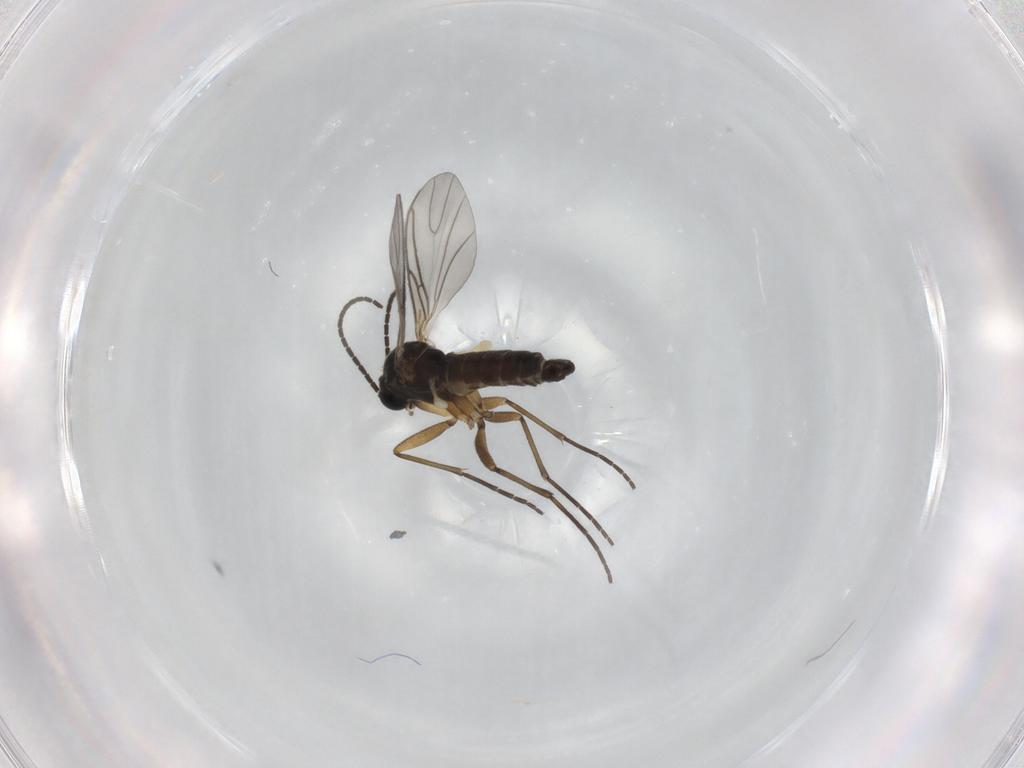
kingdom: Animalia
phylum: Arthropoda
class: Insecta
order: Diptera
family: Sciaridae
